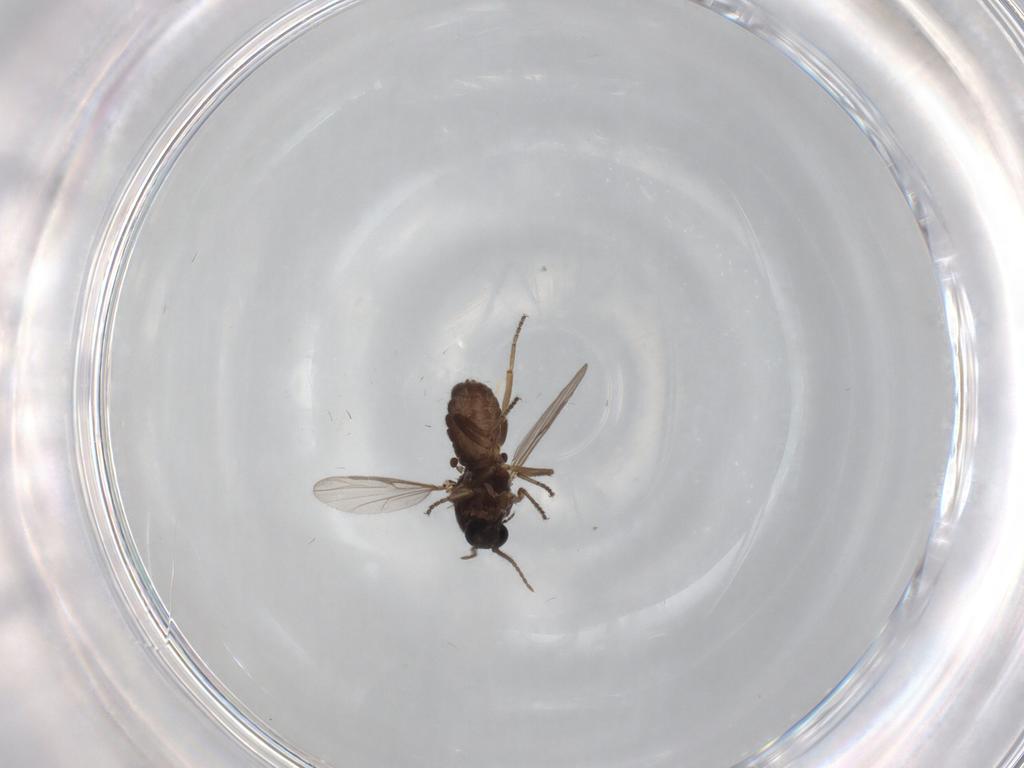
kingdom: Animalia
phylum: Arthropoda
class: Insecta
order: Diptera
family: Ceratopogonidae
